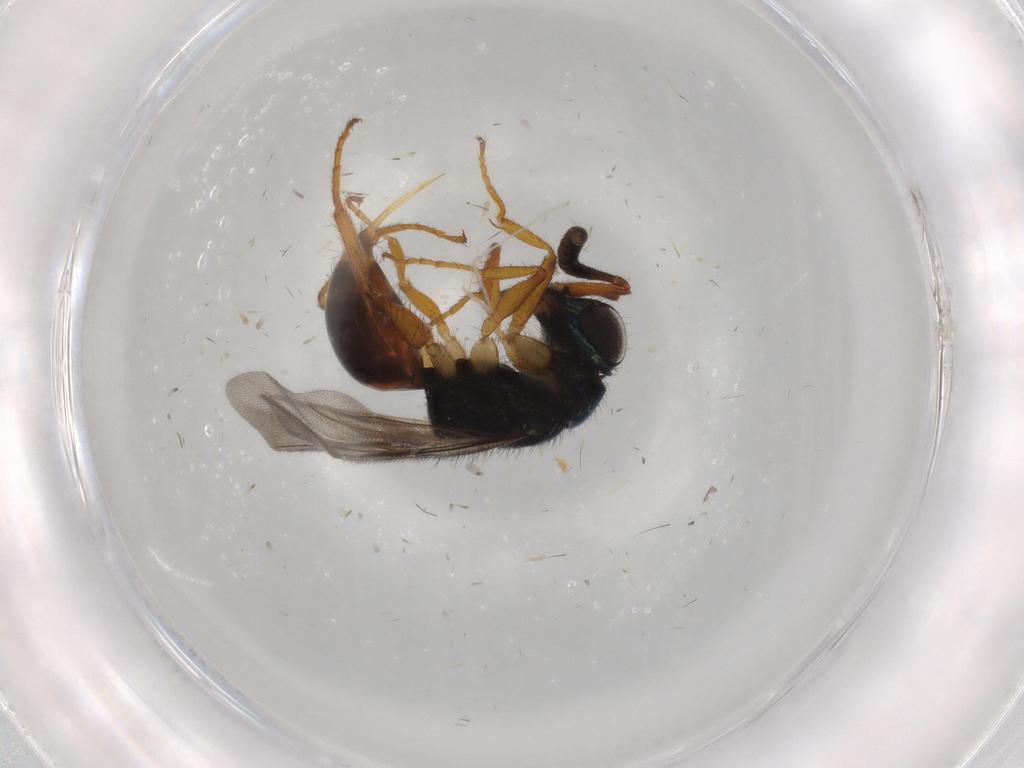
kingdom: Animalia
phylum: Arthropoda
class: Insecta
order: Hymenoptera
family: Chrysididae
